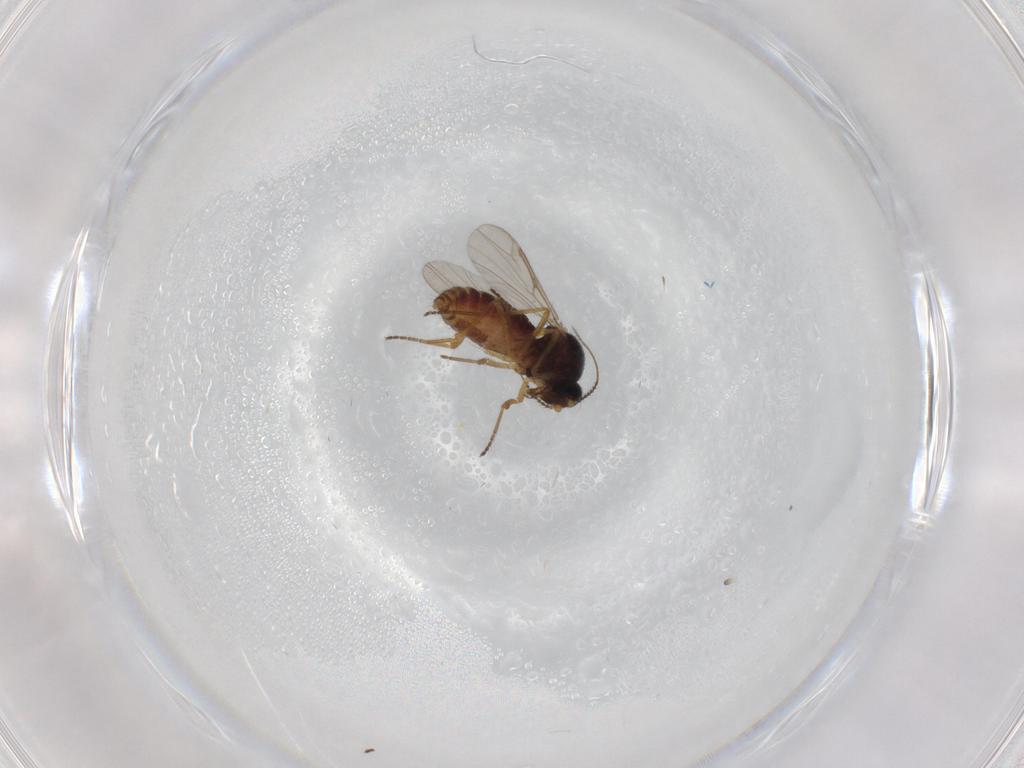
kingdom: Animalia
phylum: Arthropoda
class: Insecta
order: Diptera
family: Ceratopogonidae
